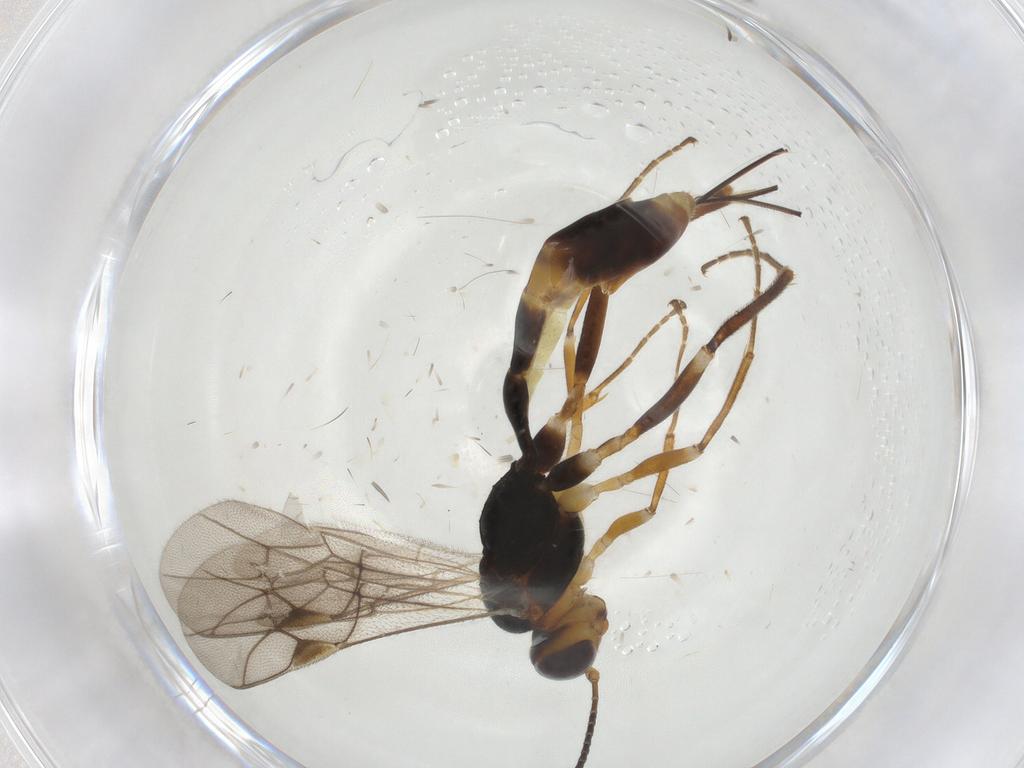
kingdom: Animalia
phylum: Arthropoda
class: Insecta
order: Hymenoptera
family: Ichneumonidae
